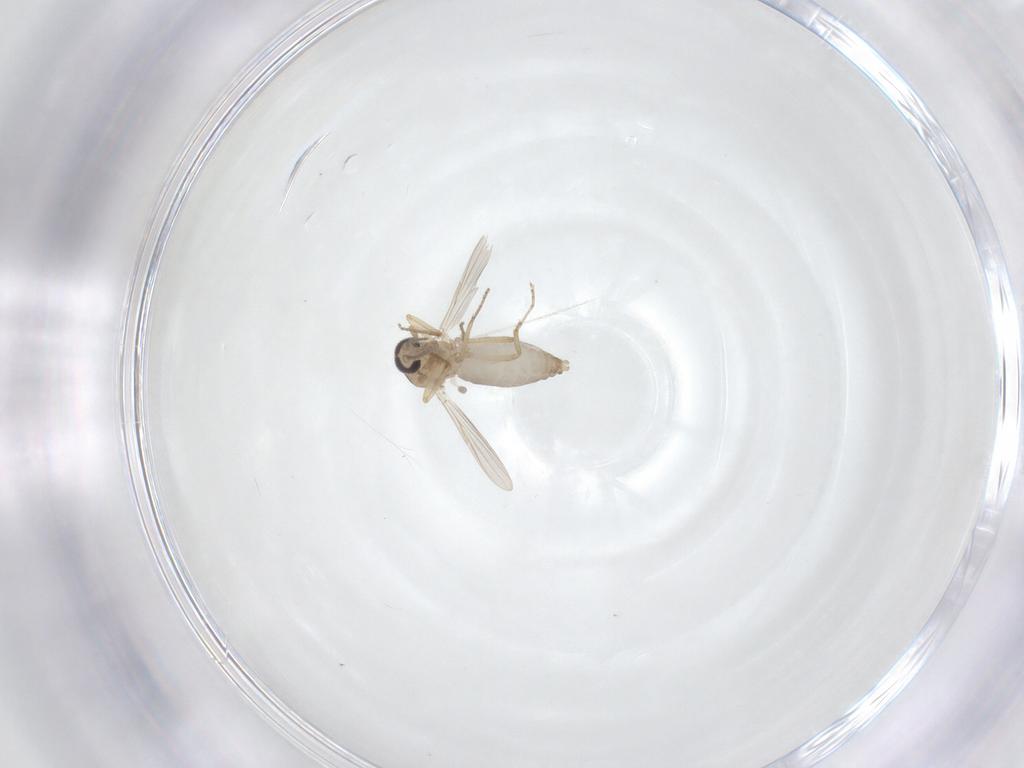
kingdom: Animalia
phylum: Arthropoda
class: Insecta
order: Diptera
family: Ceratopogonidae
